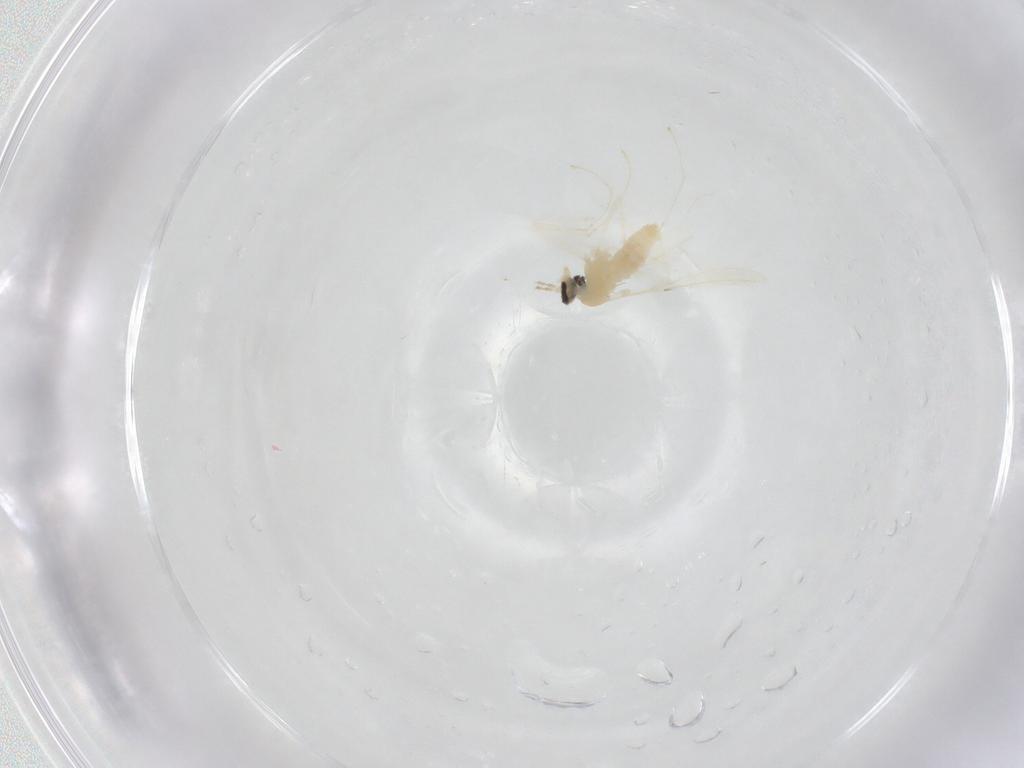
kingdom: Animalia
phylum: Arthropoda
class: Insecta
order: Diptera
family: Cecidomyiidae
